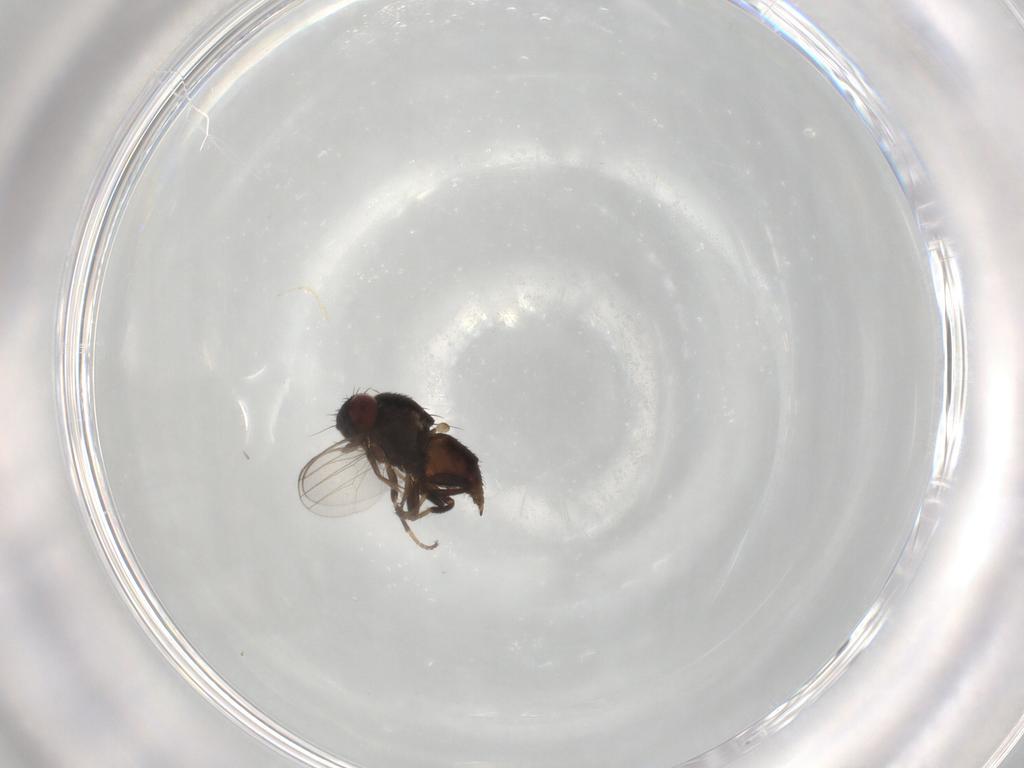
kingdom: Animalia
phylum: Arthropoda
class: Insecta
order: Diptera
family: Milichiidae
